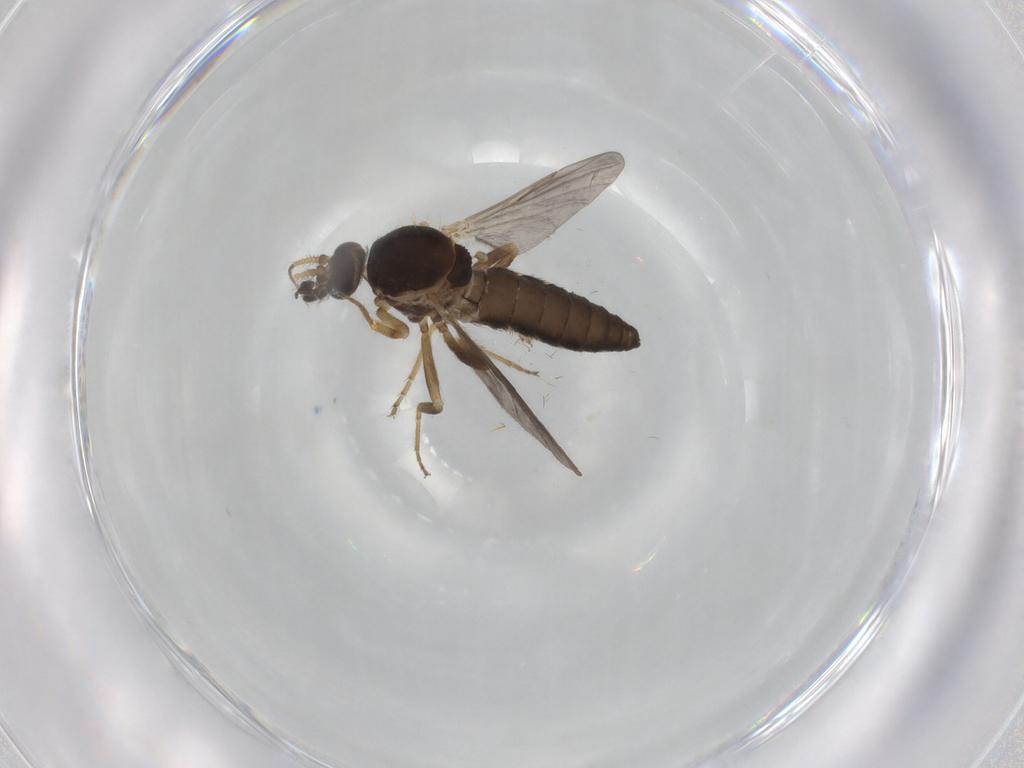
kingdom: Animalia
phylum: Arthropoda
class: Insecta
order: Diptera
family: Ceratopogonidae
